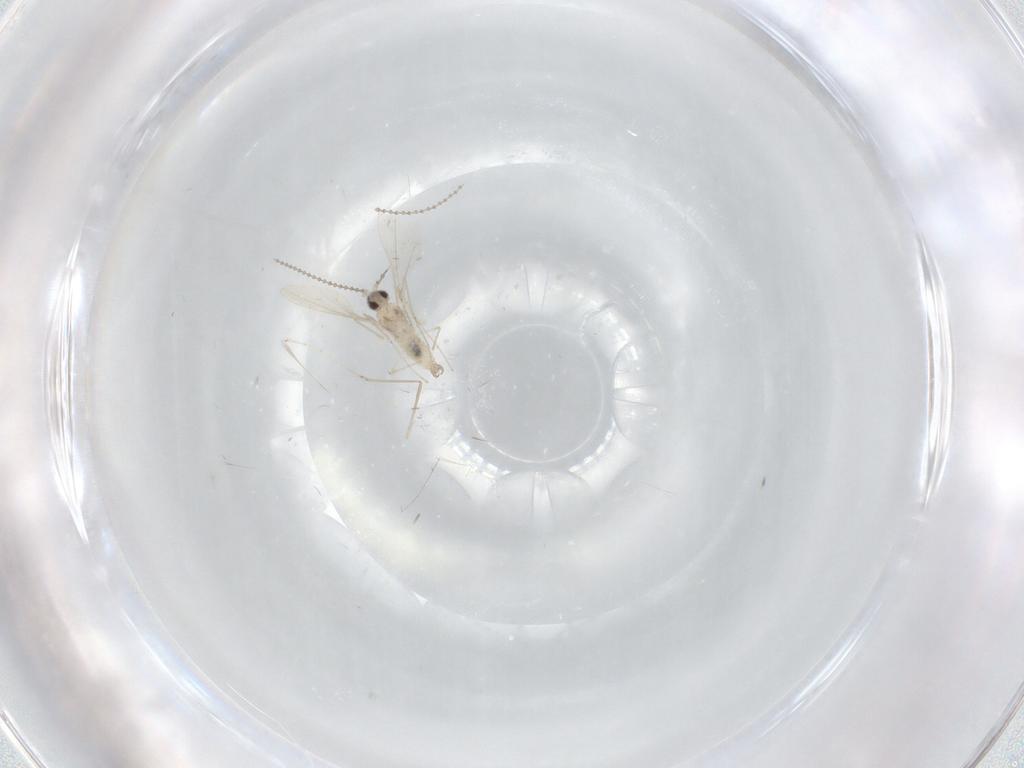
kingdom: Animalia
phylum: Arthropoda
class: Insecta
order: Diptera
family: Cecidomyiidae
